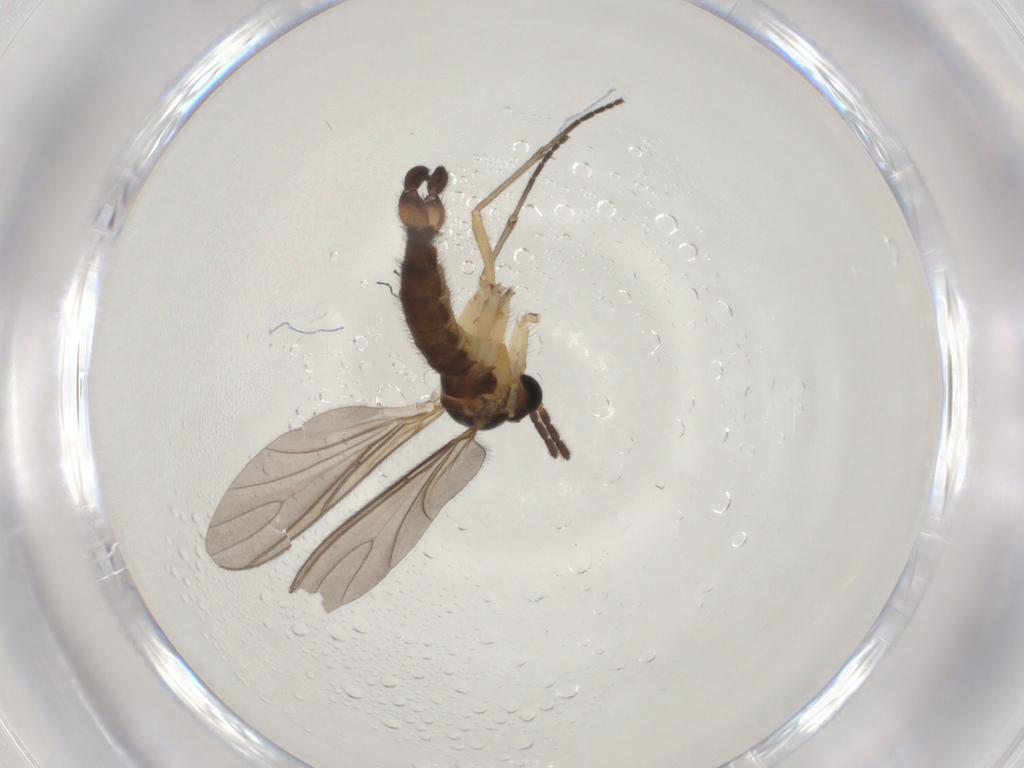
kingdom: Animalia
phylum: Arthropoda
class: Insecta
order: Diptera
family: Sciaridae
